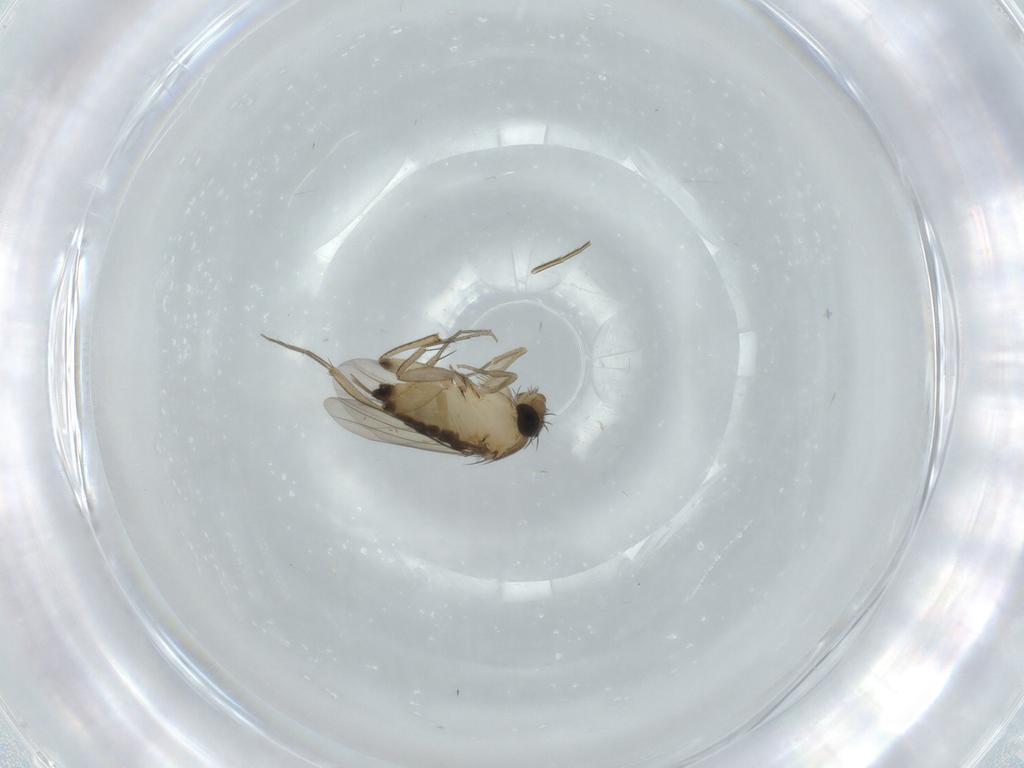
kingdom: Animalia
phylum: Arthropoda
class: Insecta
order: Diptera
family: Phoridae
